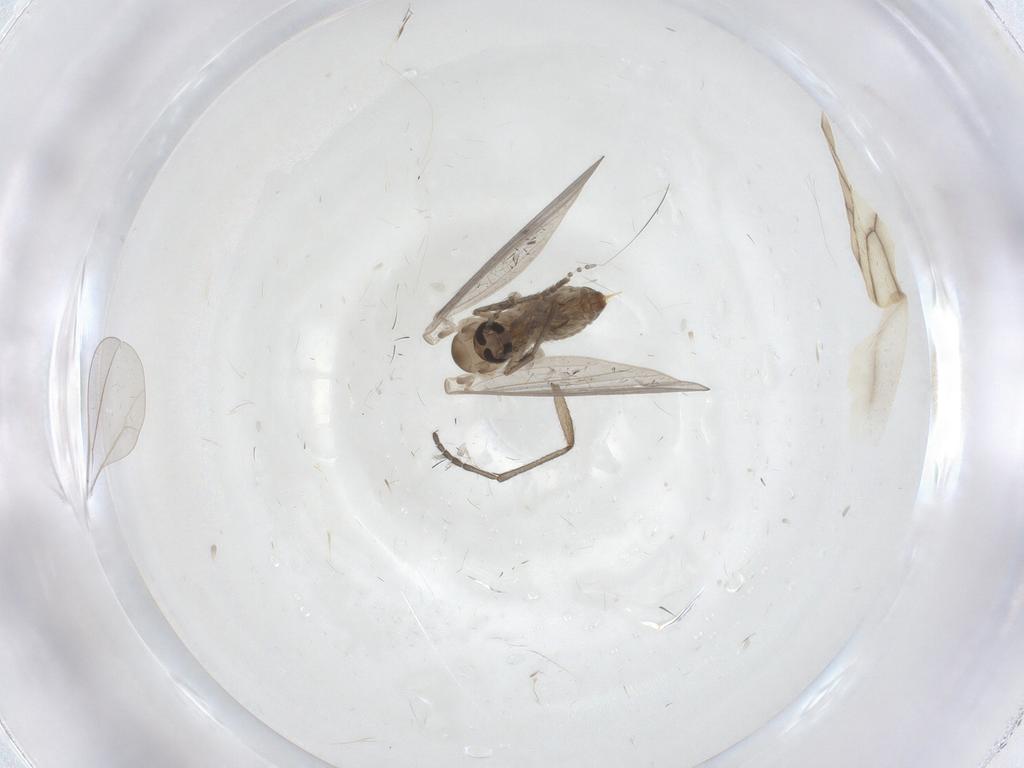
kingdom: Animalia
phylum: Arthropoda
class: Insecta
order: Diptera
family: Psychodidae
